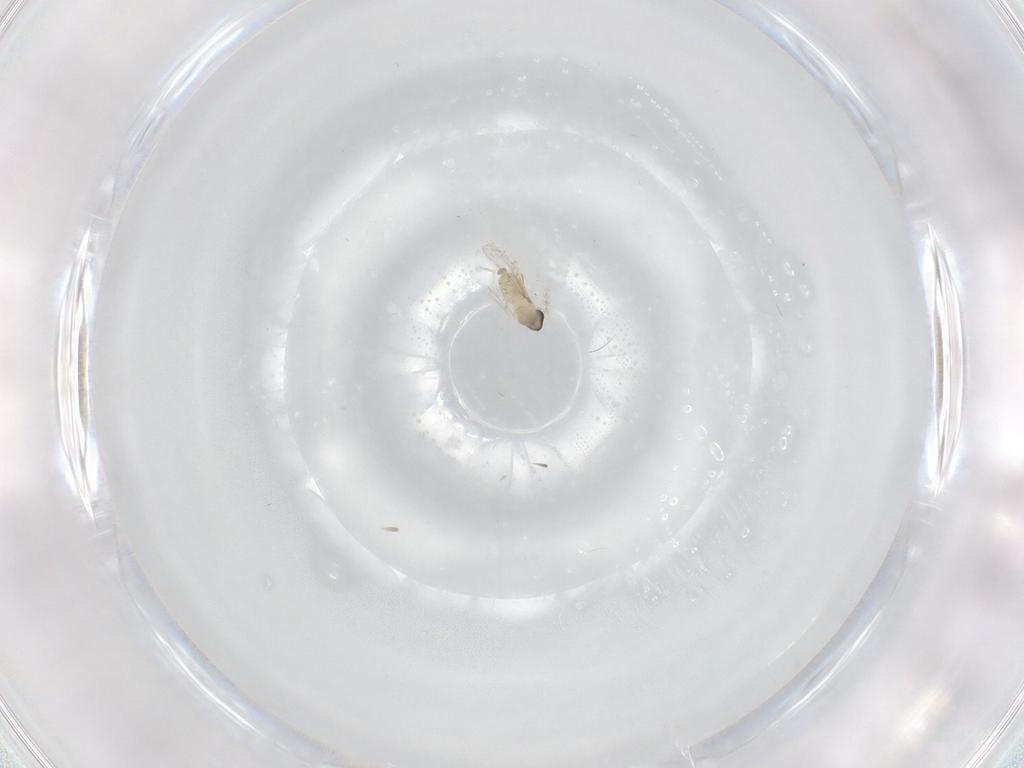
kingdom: Animalia
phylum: Arthropoda
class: Insecta
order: Diptera
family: Cecidomyiidae
